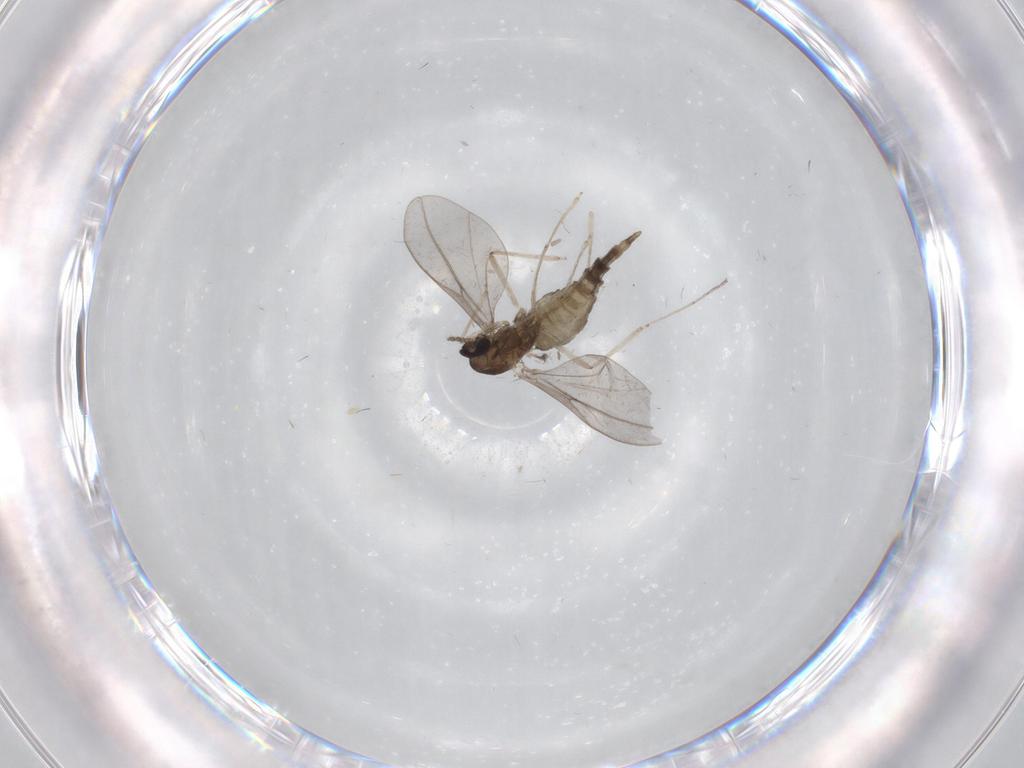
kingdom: Animalia
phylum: Arthropoda
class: Insecta
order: Diptera
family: Cecidomyiidae
